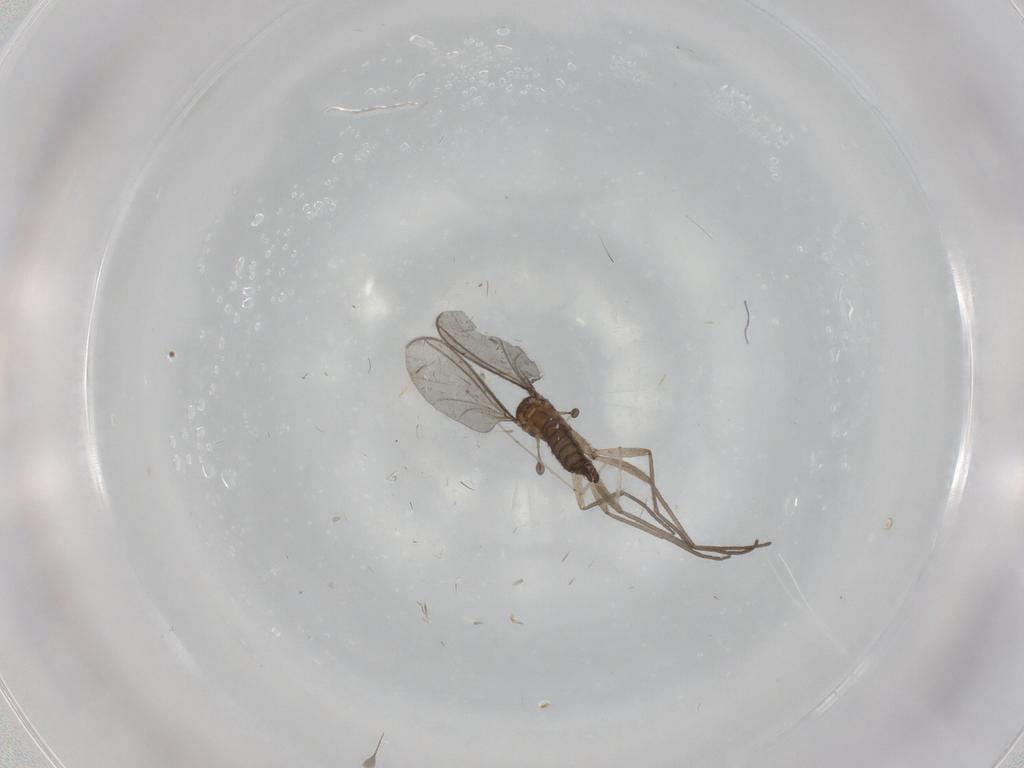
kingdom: Animalia
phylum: Arthropoda
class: Insecta
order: Diptera
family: Sciaridae
